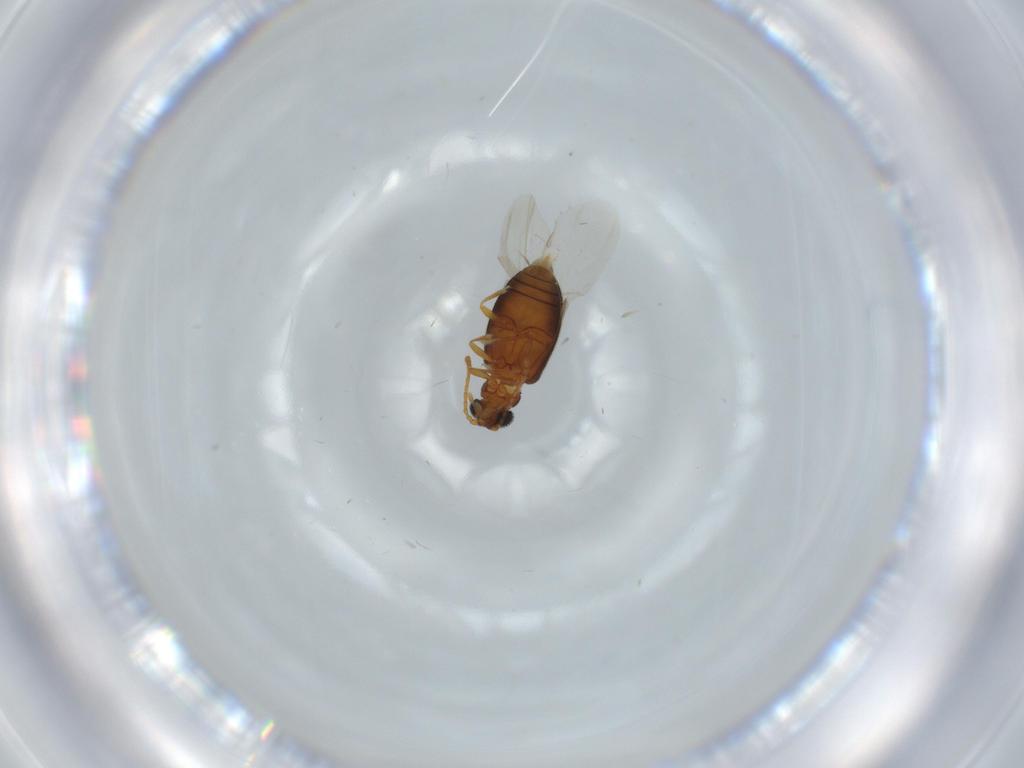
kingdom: Animalia
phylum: Arthropoda
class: Insecta
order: Coleoptera
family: Aderidae
